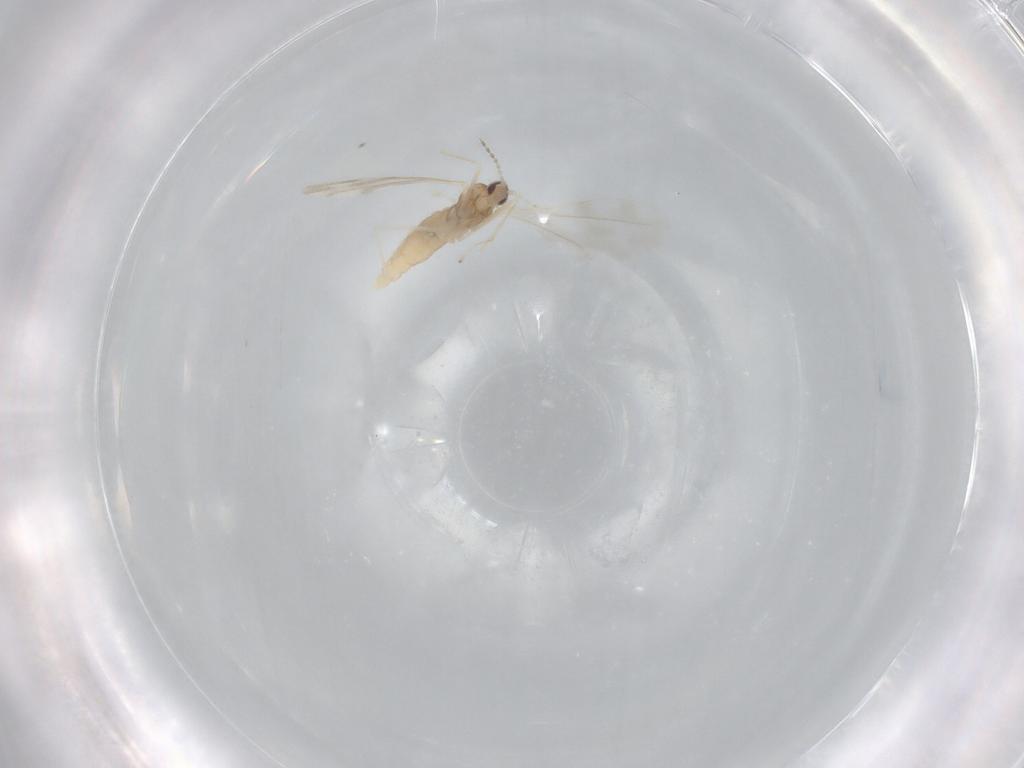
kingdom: Animalia
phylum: Arthropoda
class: Insecta
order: Diptera
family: Cecidomyiidae
